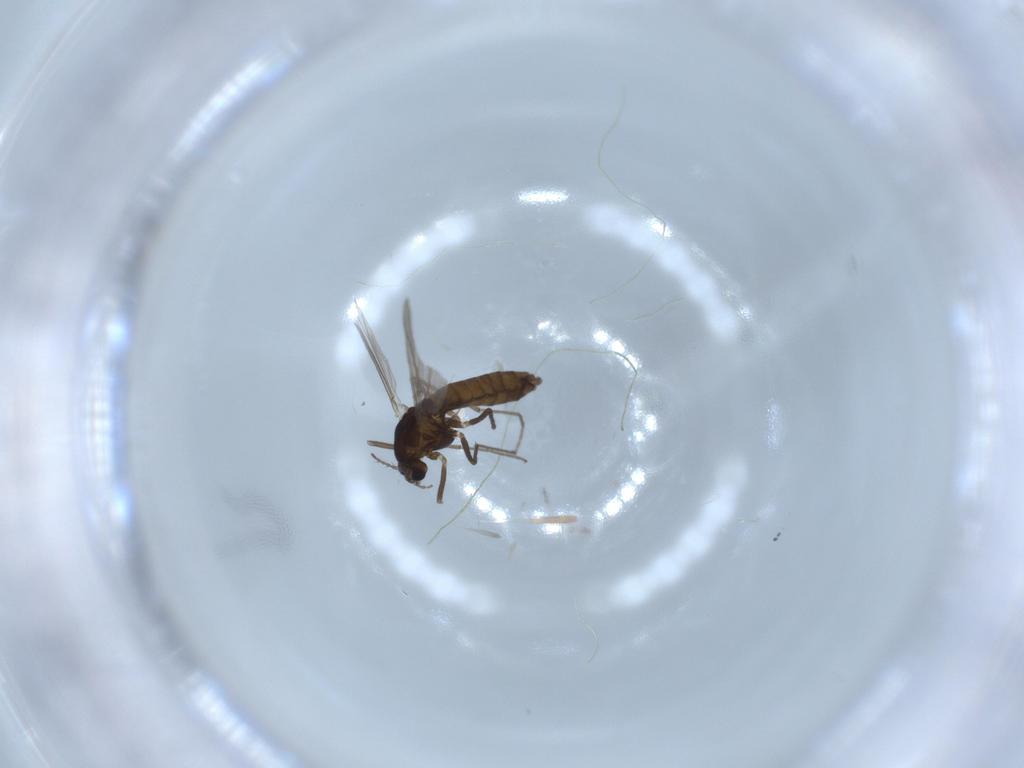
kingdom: Animalia
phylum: Arthropoda
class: Insecta
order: Diptera
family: Chironomidae
